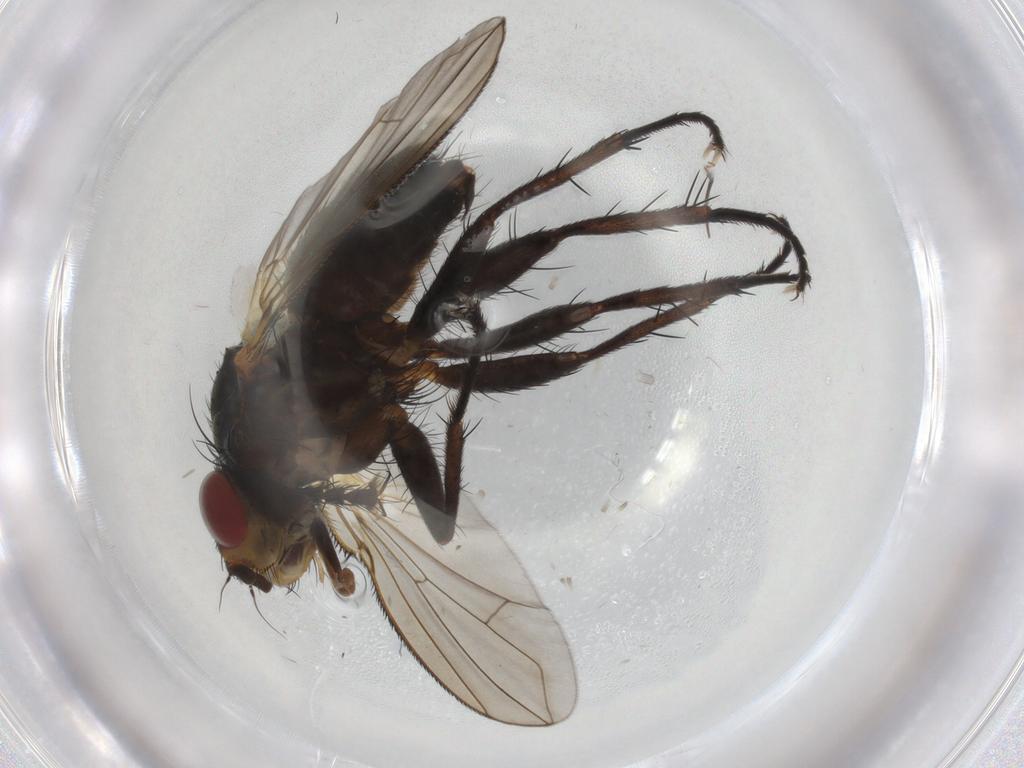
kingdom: Animalia
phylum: Arthropoda
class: Insecta
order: Diptera
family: Chironomidae
